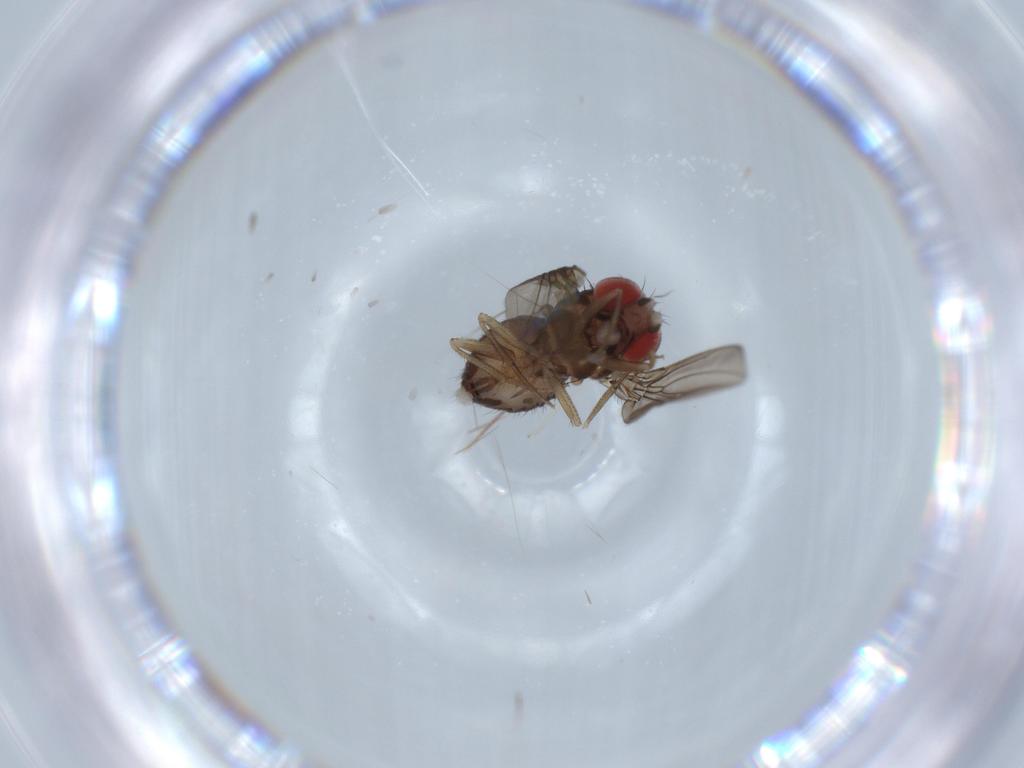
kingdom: Animalia
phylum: Arthropoda
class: Insecta
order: Diptera
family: Drosophilidae
